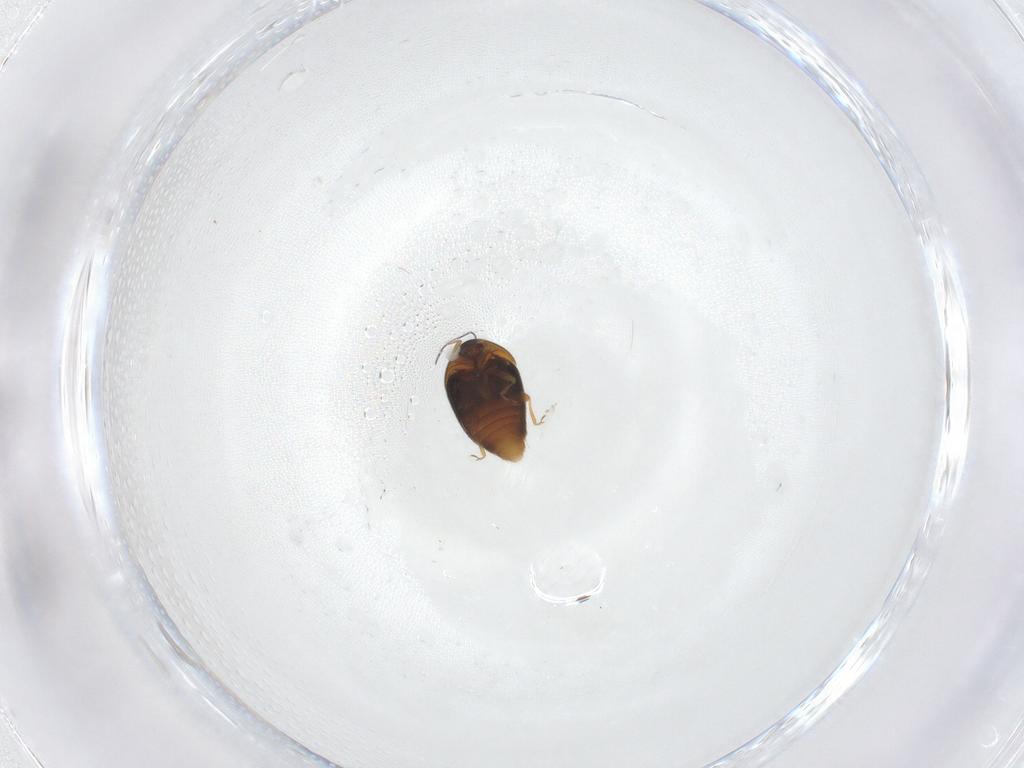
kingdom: Animalia
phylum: Arthropoda
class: Insecta
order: Coleoptera
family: Corylophidae
